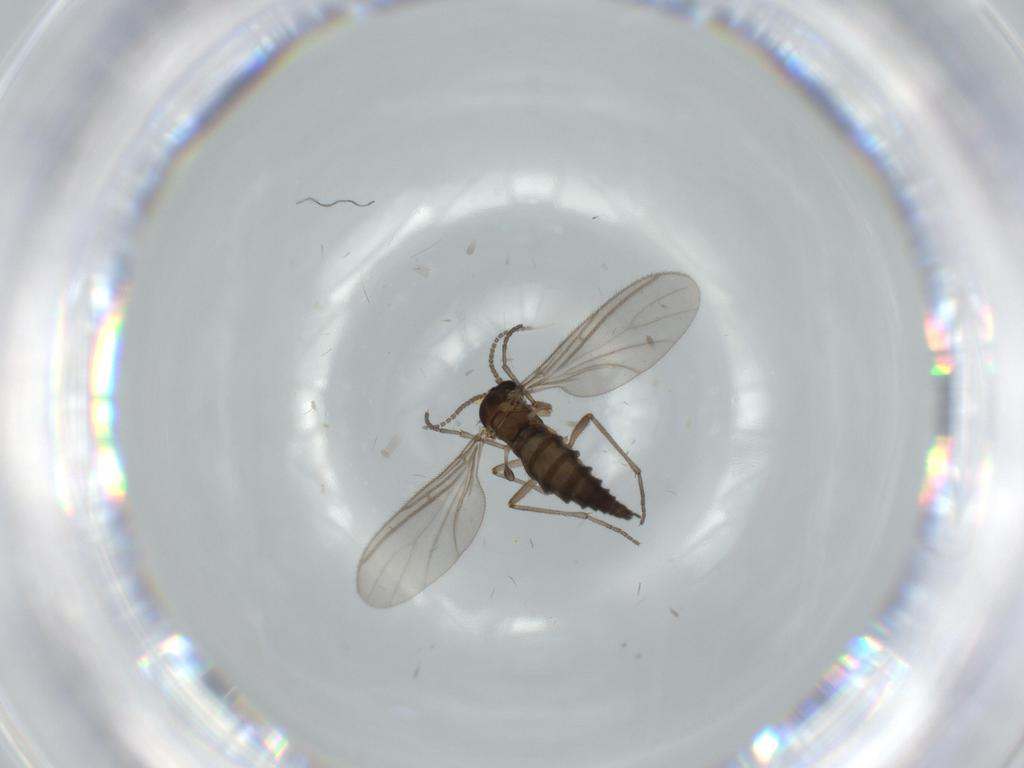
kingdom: Animalia
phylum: Arthropoda
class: Insecta
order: Diptera
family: Sciaridae
